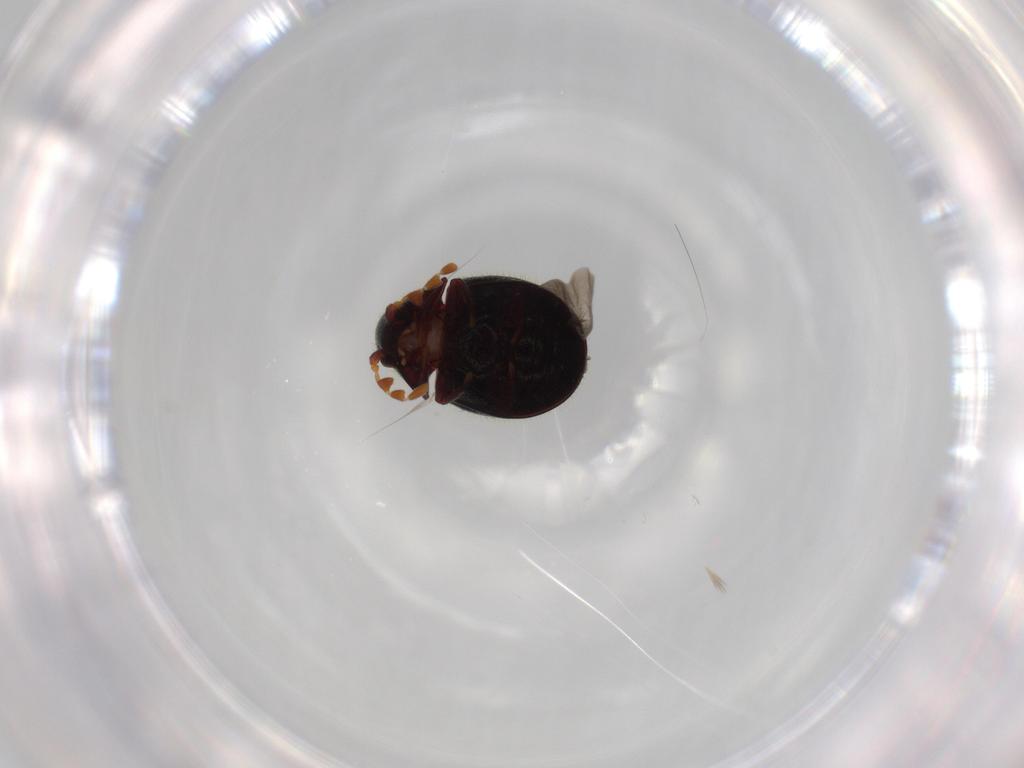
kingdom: Animalia
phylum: Arthropoda
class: Insecta
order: Coleoptera
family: Ptinidae
